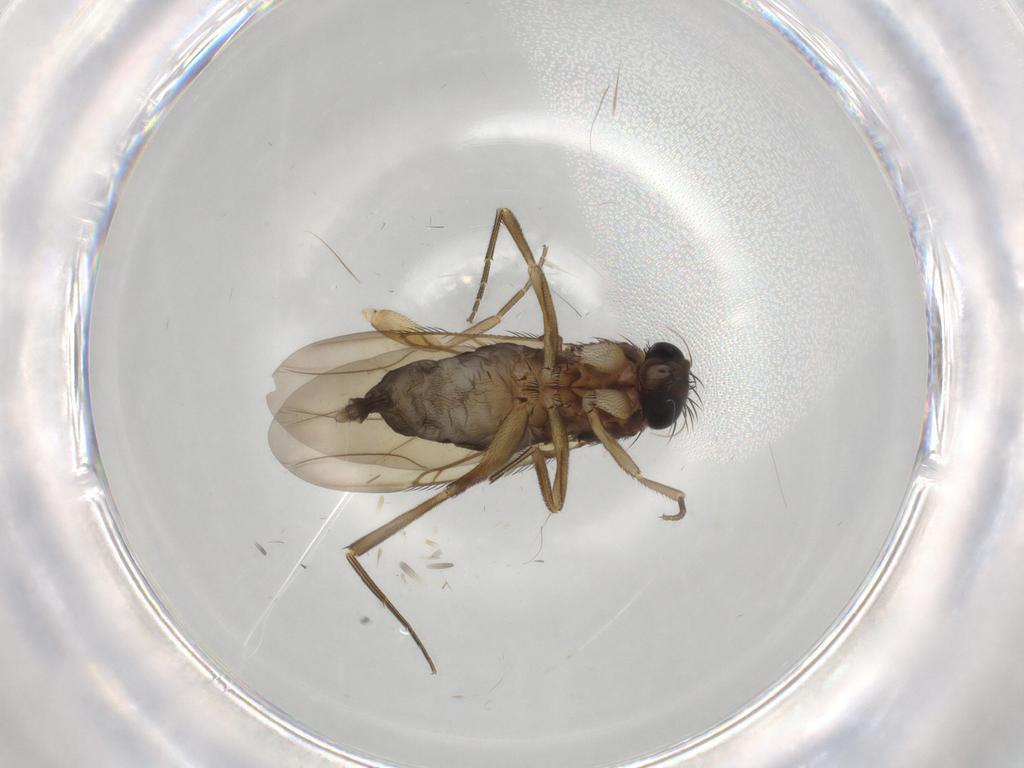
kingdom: Animalia
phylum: Arthropoda
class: Insecta
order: Diptera
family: Phoridae
